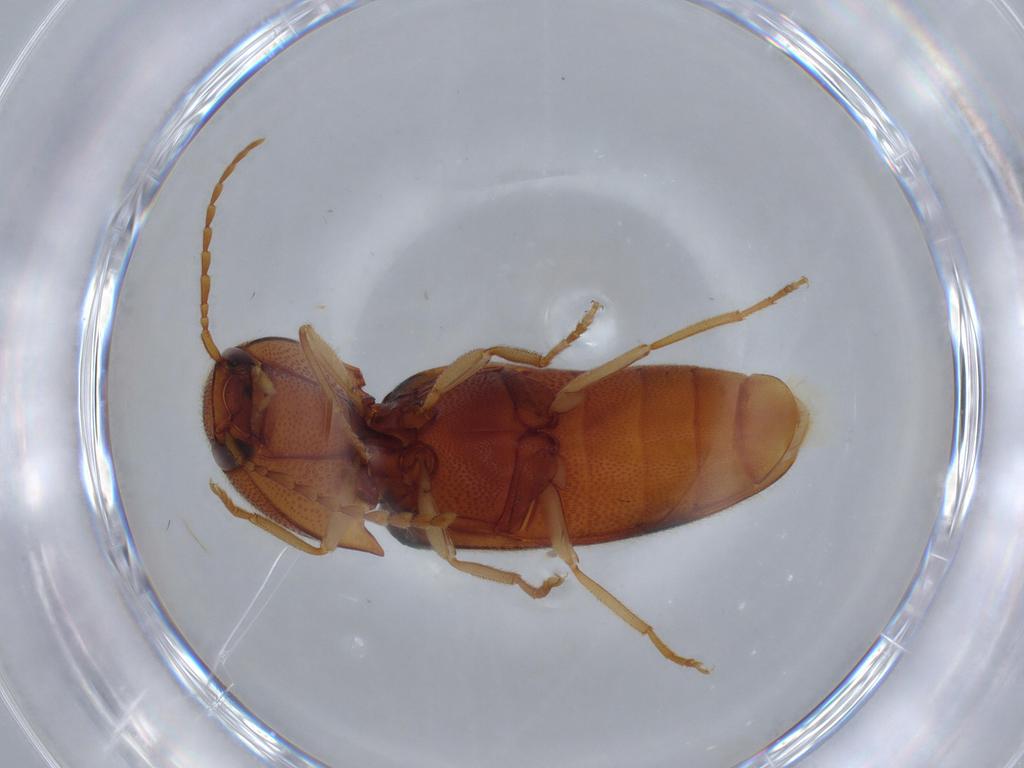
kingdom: Animalia
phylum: Arthropoda
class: Insecta
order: Coleoptera
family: Ptilodactylidae
